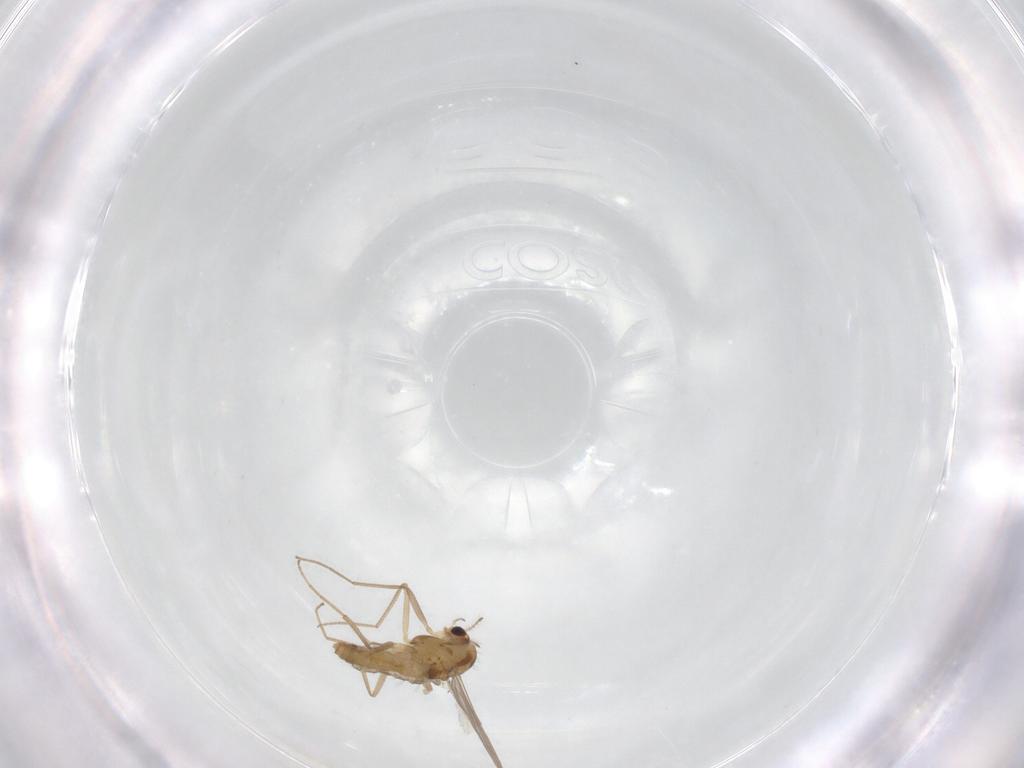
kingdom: Animalia
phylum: Arthropoda
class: Insecta
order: Diptera
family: Chironomidae
